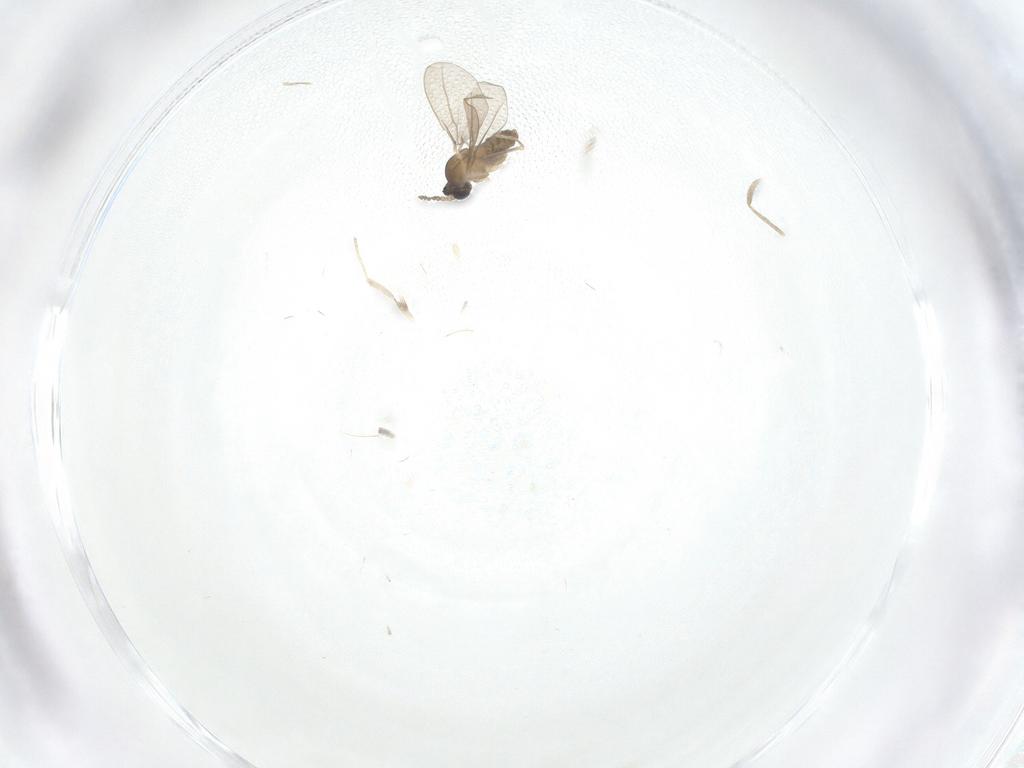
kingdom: Animalia
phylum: Arthropoda
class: Insecta
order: Diptera
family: Cecidomyiidae
